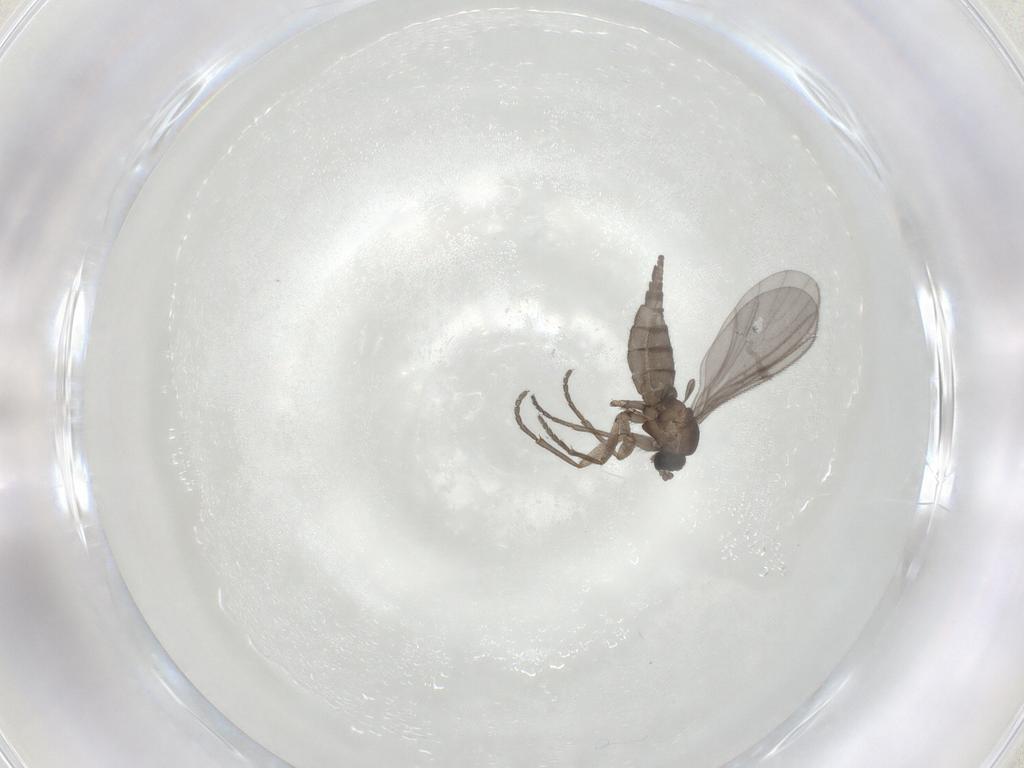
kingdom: Animalia
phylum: Arthropoda
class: Insecta
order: Diptera
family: Sciaridae
